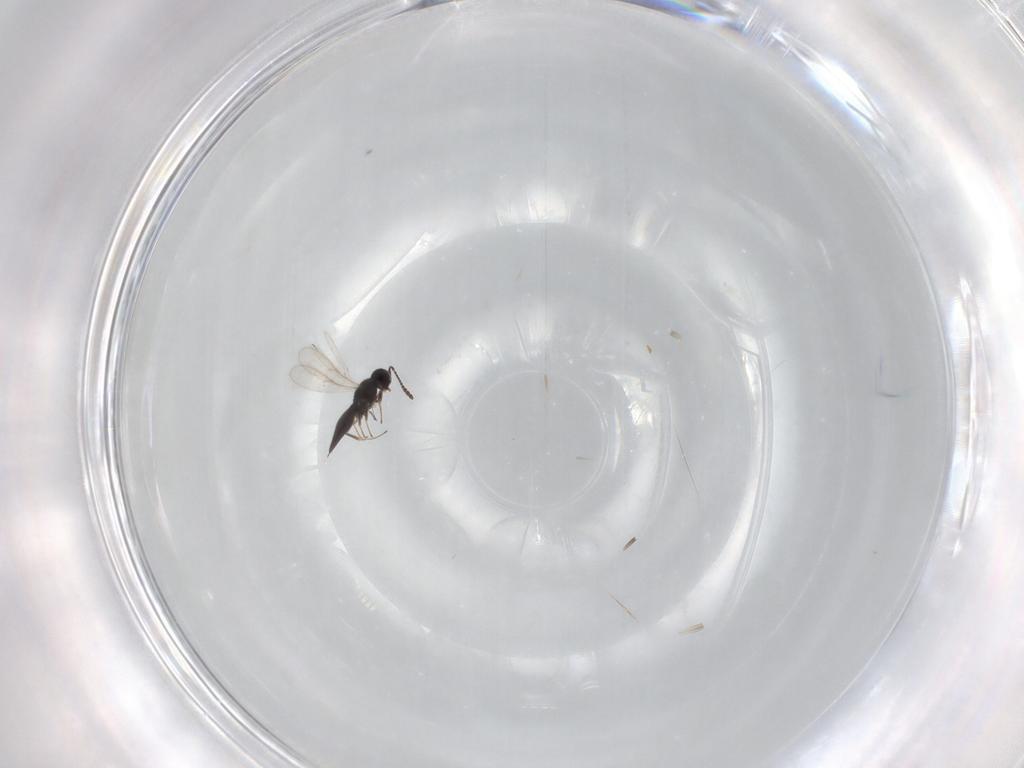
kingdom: Animalia
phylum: Arthropoda
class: Insecta
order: Hymenoptera
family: Scelionidae
